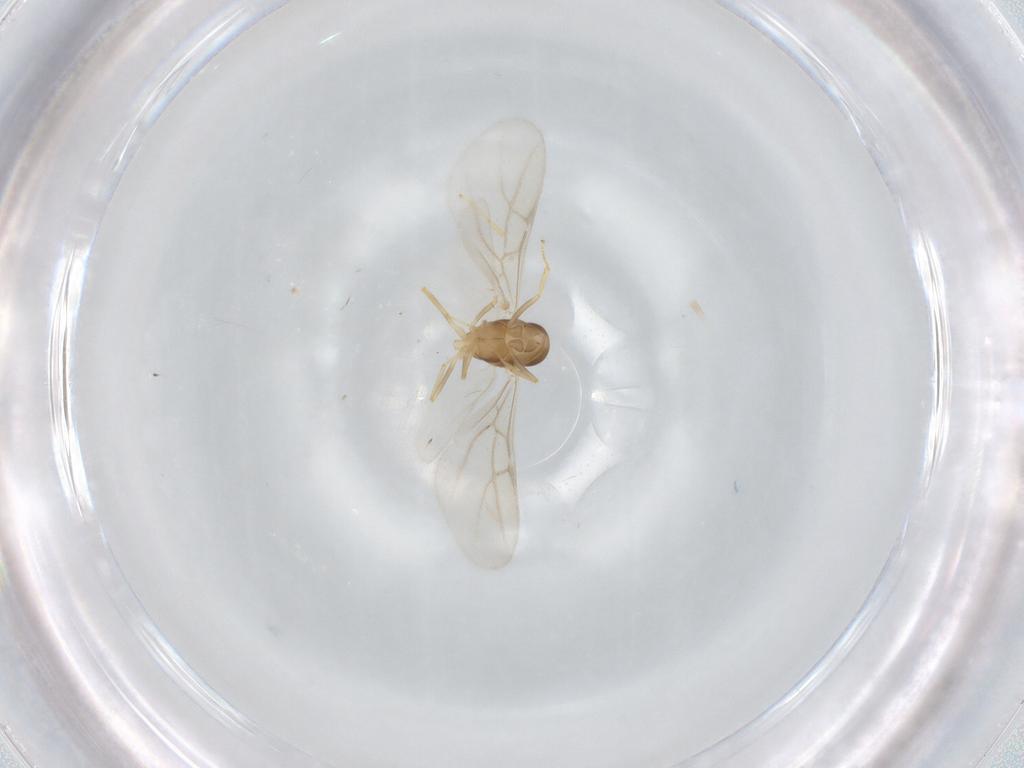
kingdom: Animalia
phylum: Arthropoda
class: Insecta
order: Hymenoptera
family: Formicidae
